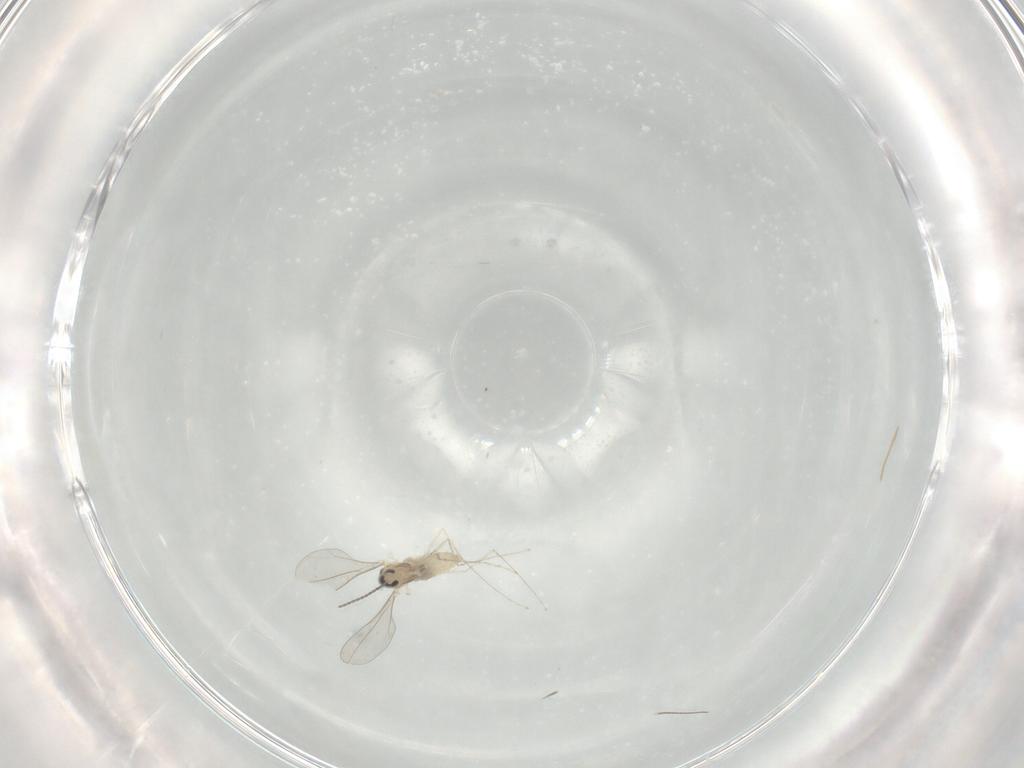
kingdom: Animalia
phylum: Arthropoda
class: Insecta
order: Diptera
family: Cecidomyiidae
